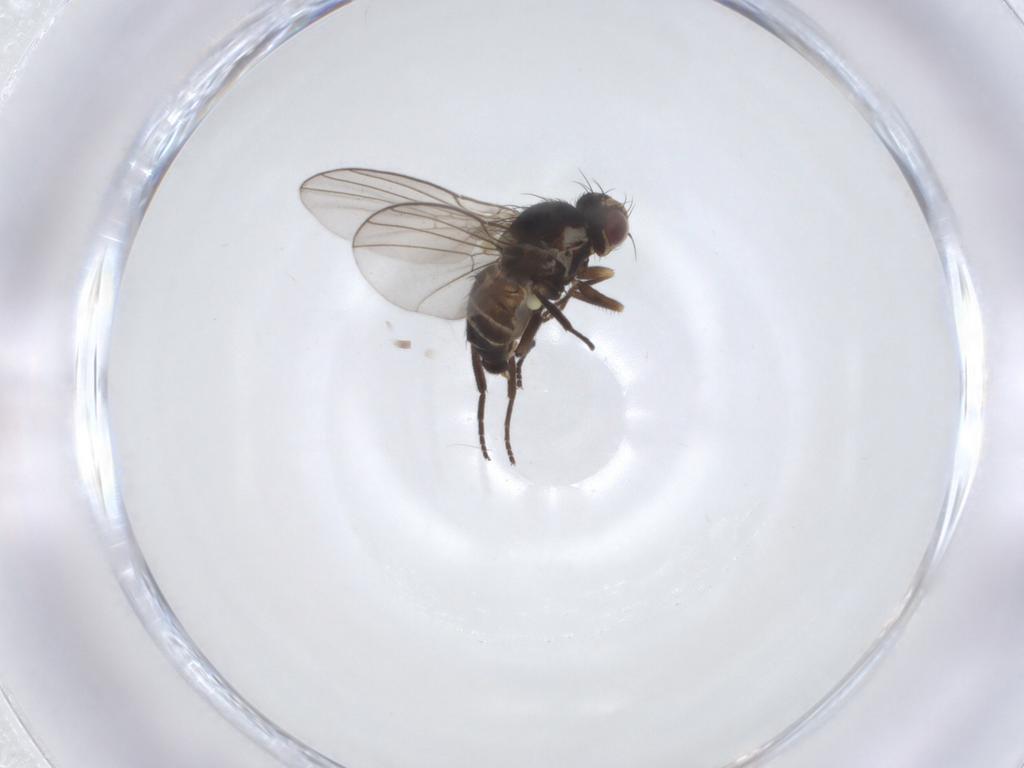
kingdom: Animalia
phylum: Arthropoda
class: Insecta
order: Diptera
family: Agromyzidae
